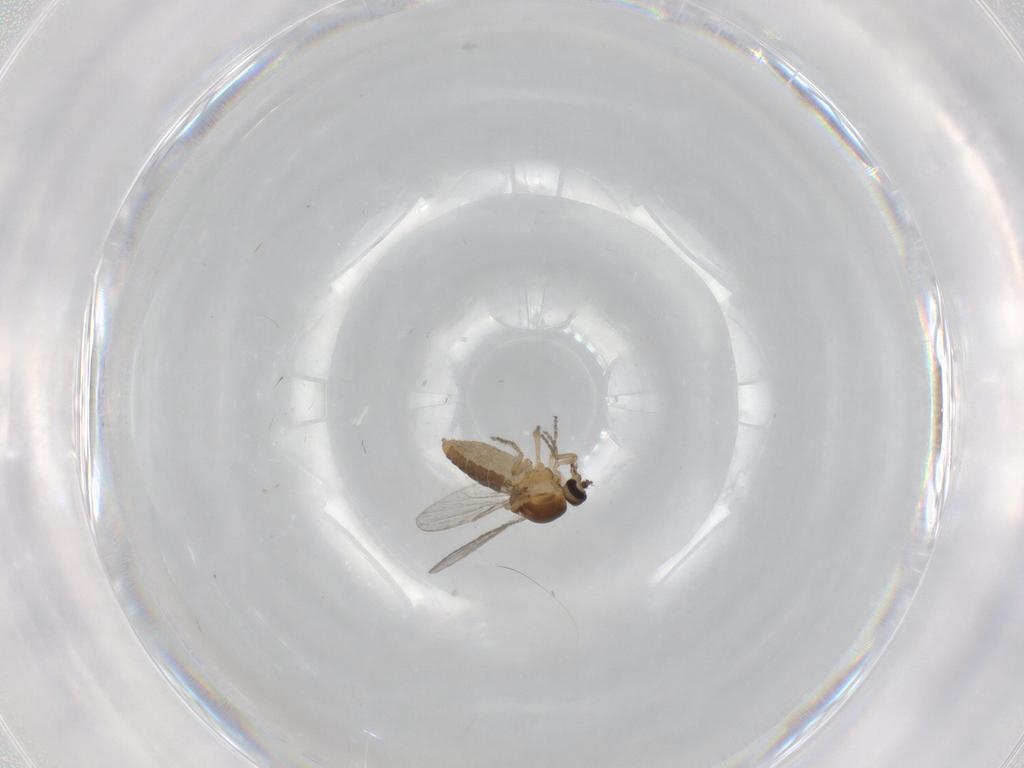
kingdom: Animalia
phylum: Arthropoda
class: Insecta
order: Diptera
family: Ceratopogonidae
